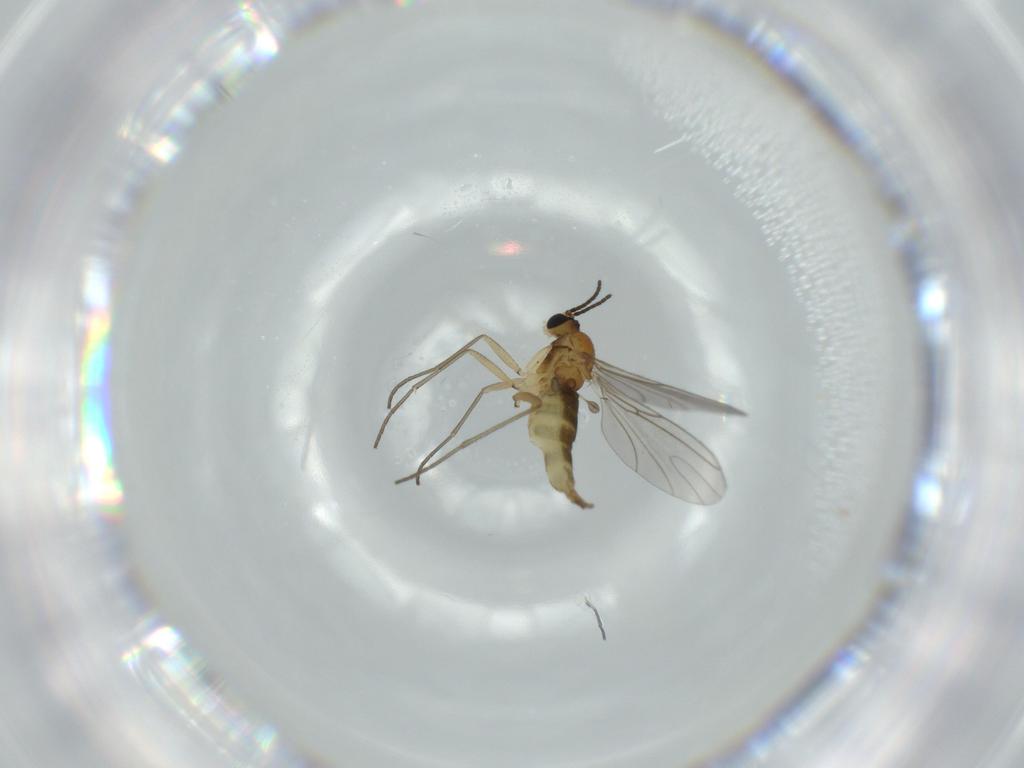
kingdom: Animalia
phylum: Arthropoda
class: Insecta
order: Diptera
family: Sciaridae
